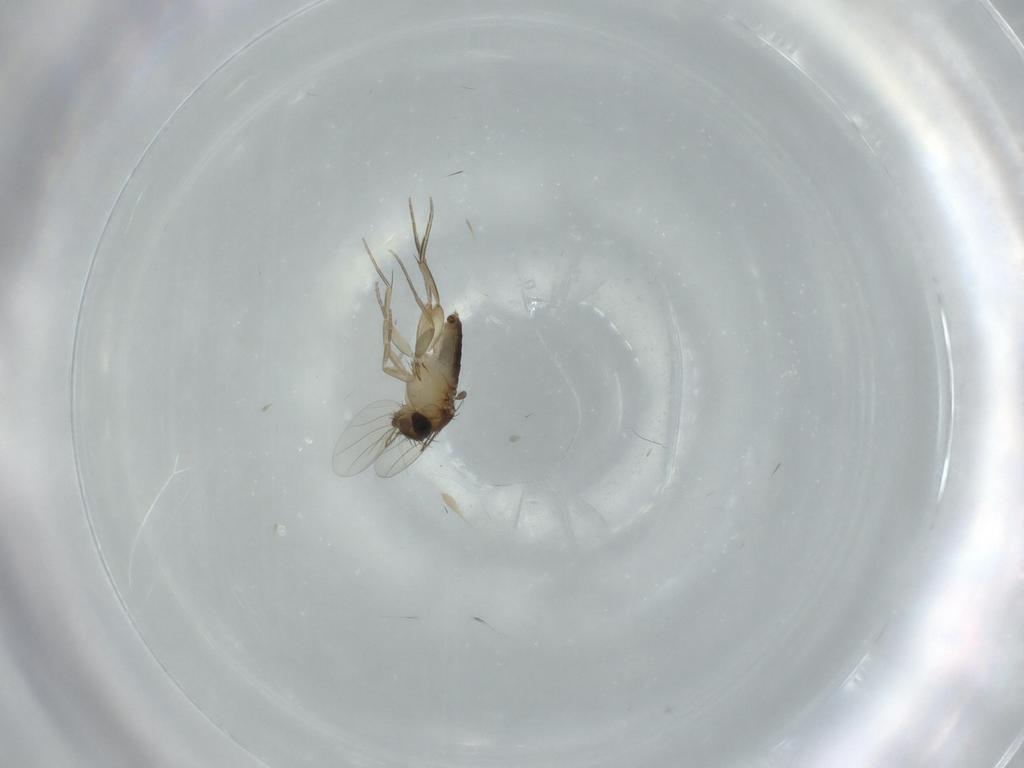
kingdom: Animalia
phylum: Arthropoda
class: Insecta
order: Diptera
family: Phoridae
